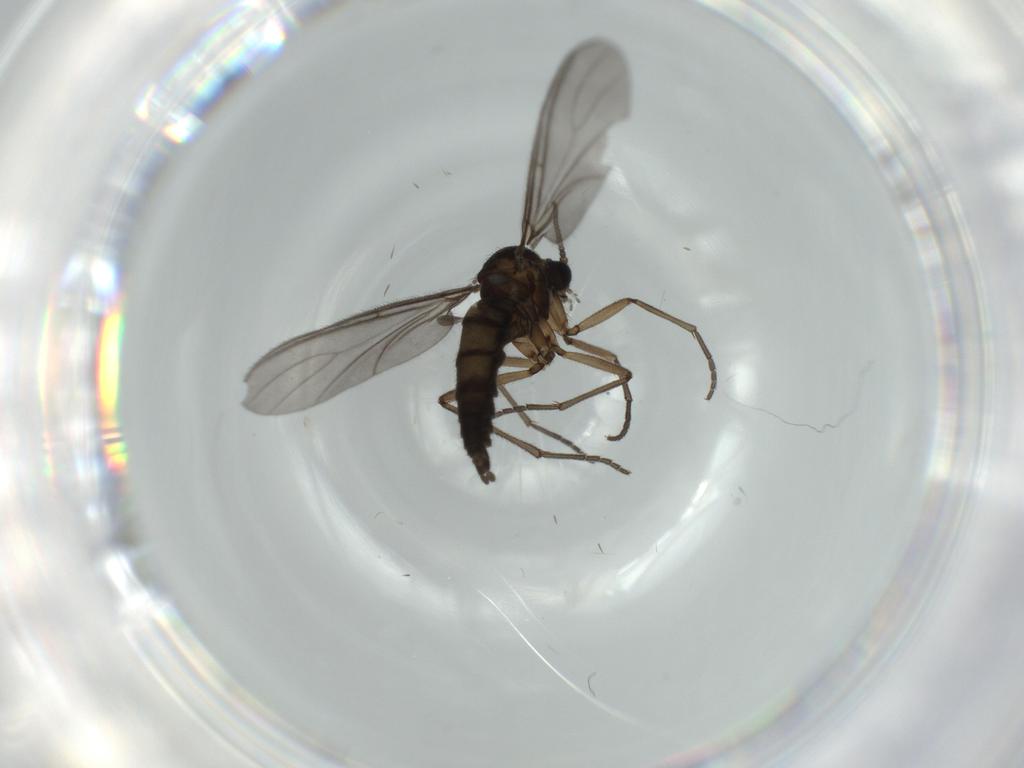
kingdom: Animalia
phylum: Arthropoda
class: Insecta
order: Diptera
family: Sciaridae
